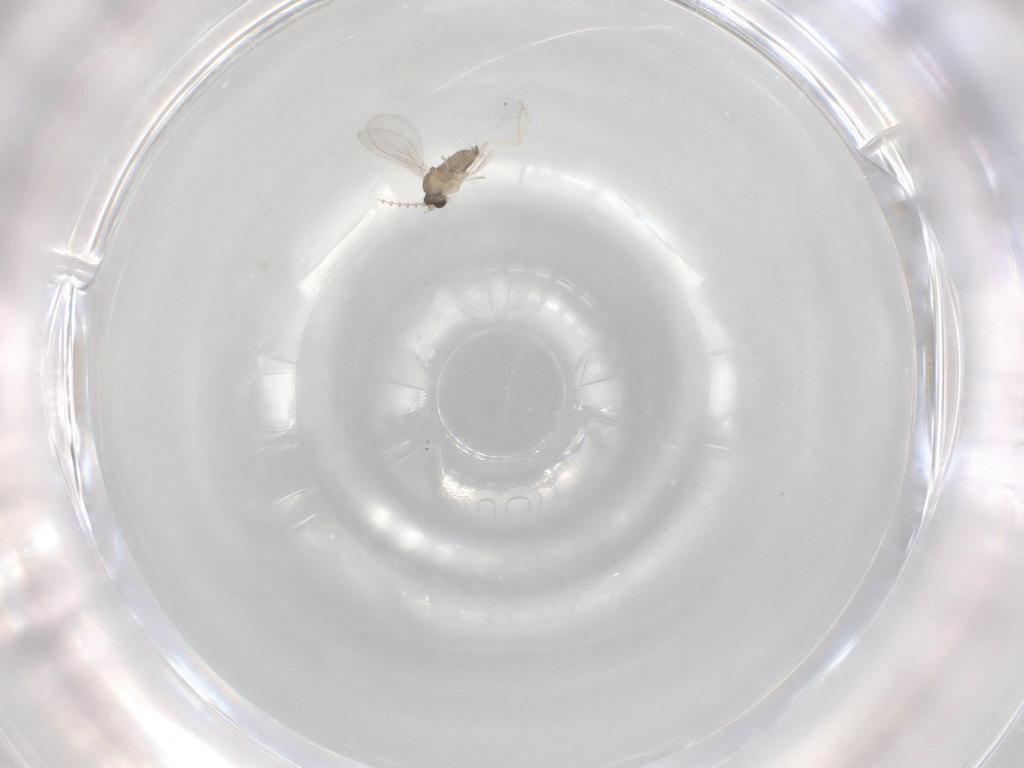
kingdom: Animalia
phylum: Arthropoda
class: Insecta
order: Diptera
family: Cecidomyiidae
